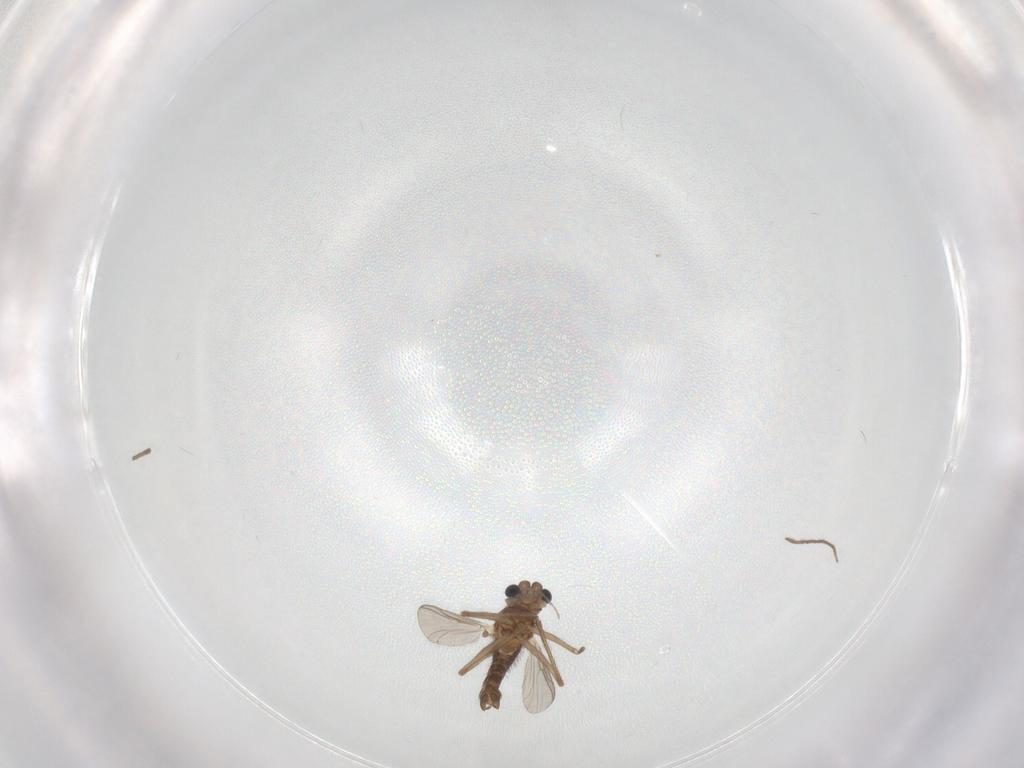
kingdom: Animalia
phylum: Arthropoda
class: Insecta
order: Diptera
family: Chironomidae
